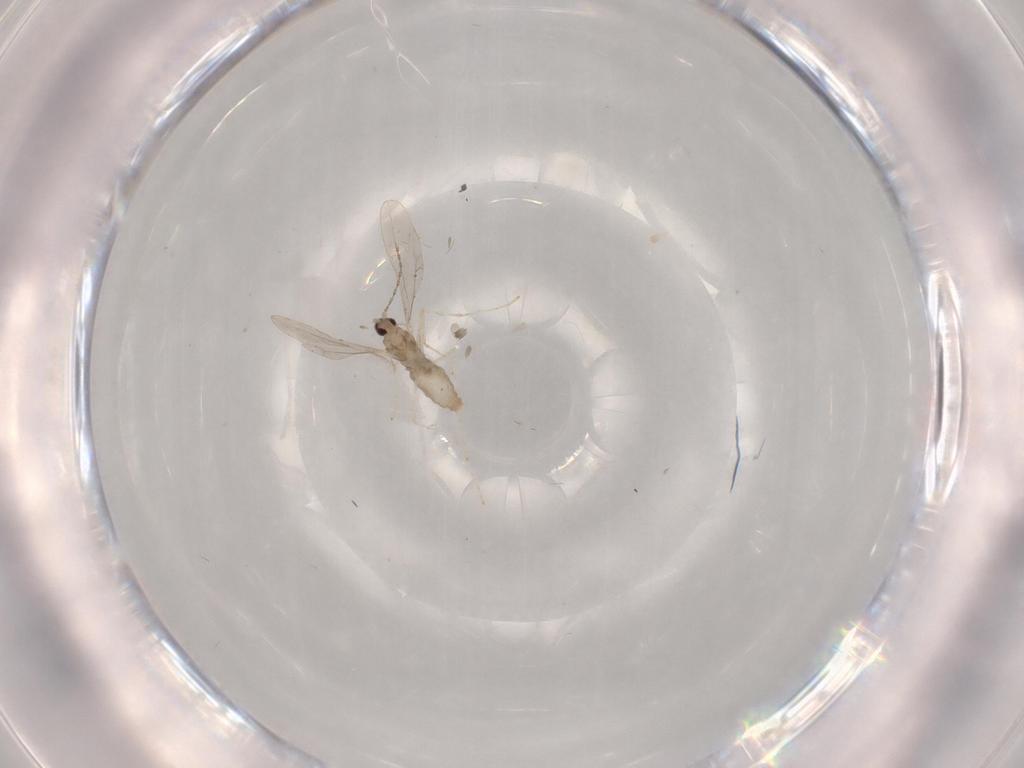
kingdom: Animalia
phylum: Arthropoda
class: Insecta
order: Diptera
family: Cecidomyiidae
